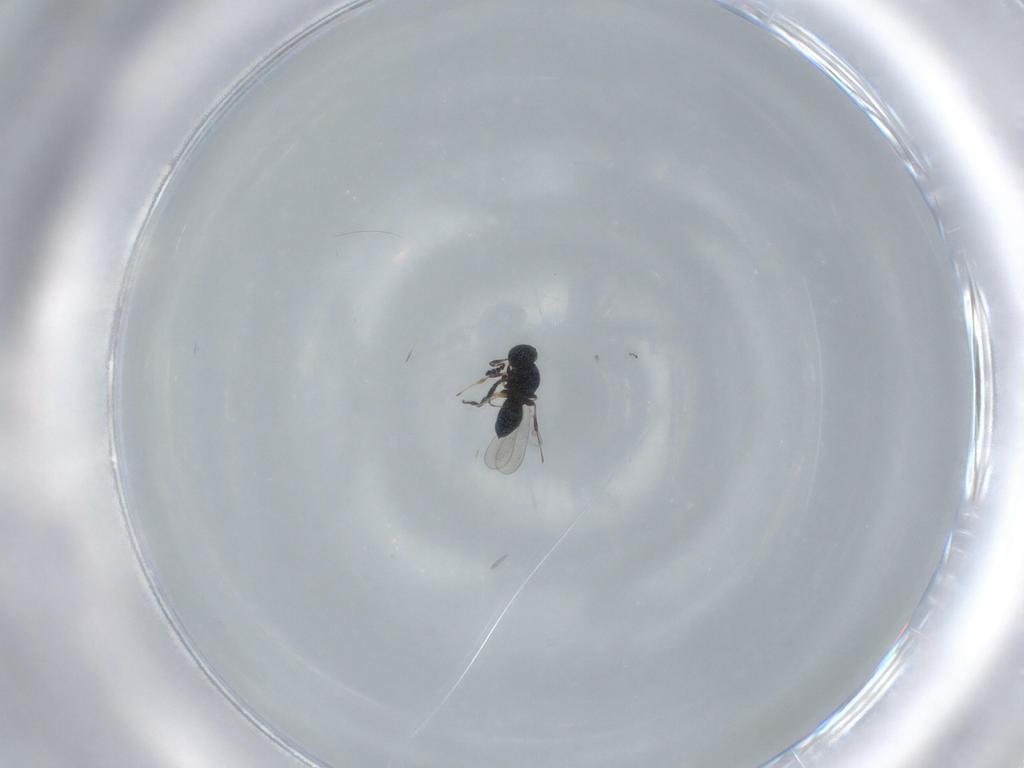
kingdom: Animalia
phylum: Arthropoda
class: Insecta
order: Hymenoptera
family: Platygastridae
